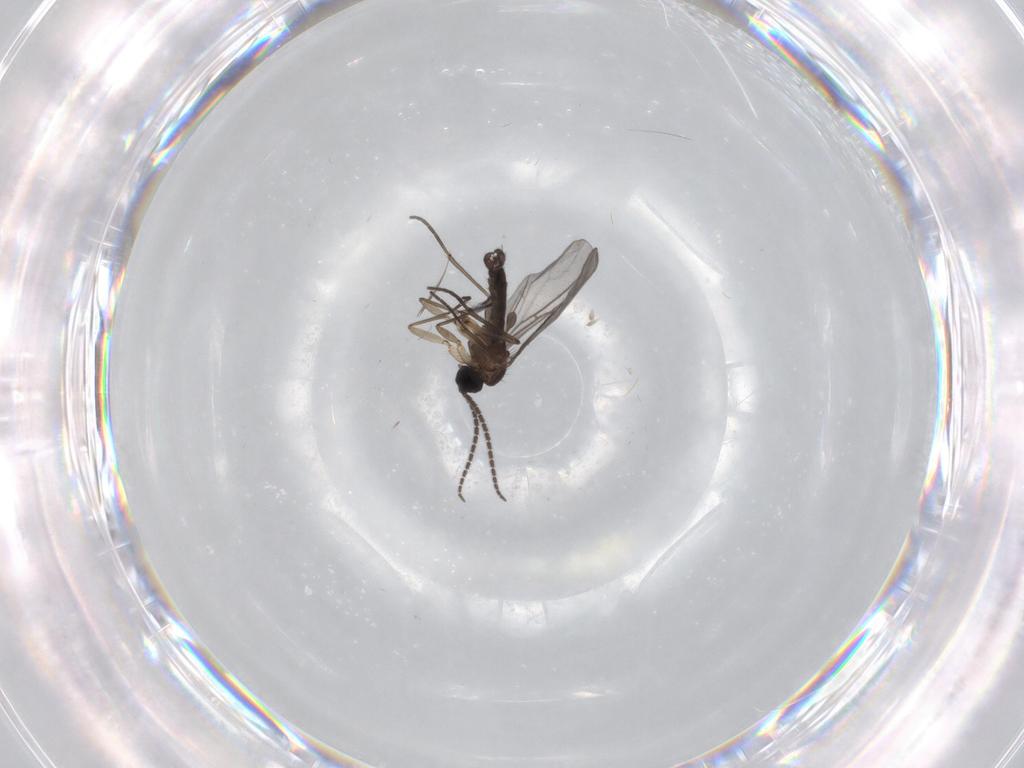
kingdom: Animalia
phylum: Arthropoda
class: Insecta
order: Diptera
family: Sciaridae
